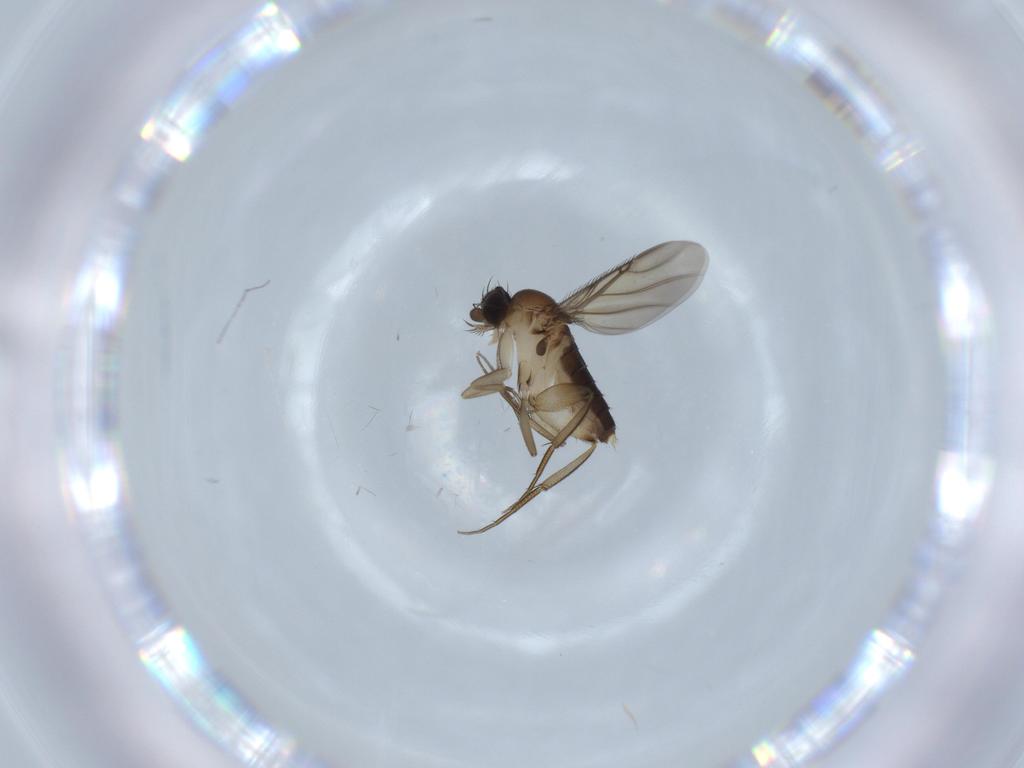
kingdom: Animalia
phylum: Arthropoda
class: Insecta
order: Diptera
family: Phoridae
